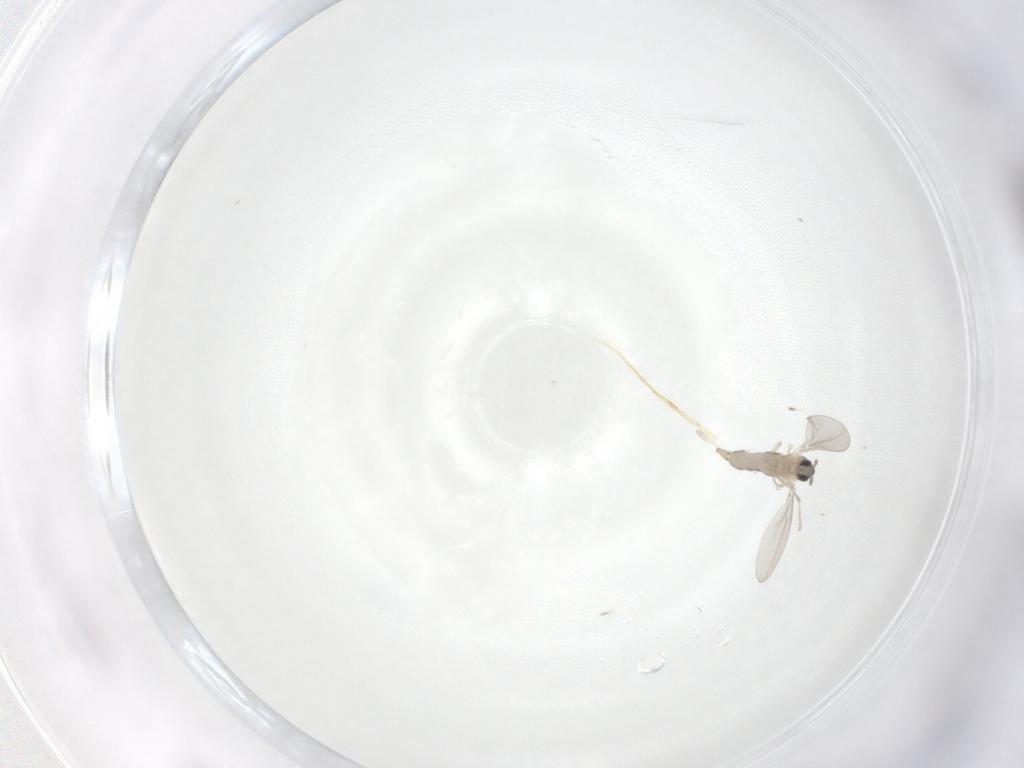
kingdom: Animalia
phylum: Arthropoda
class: Insecta
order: Diptera
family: Cecidomyiidae
